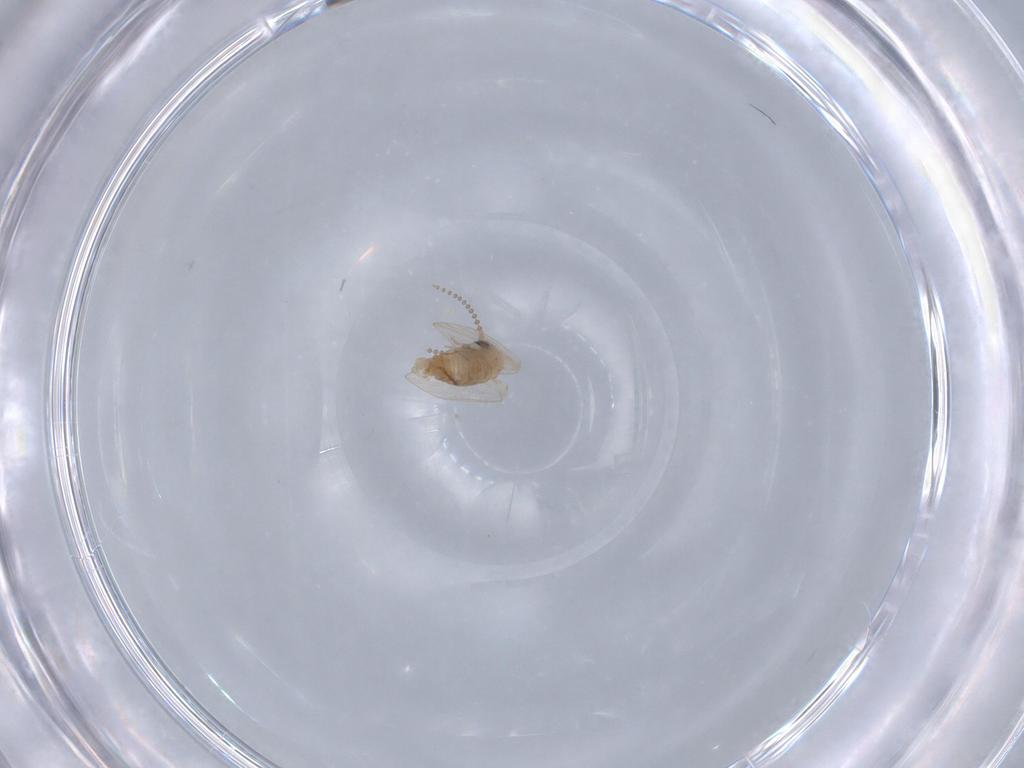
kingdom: Animalia
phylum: Arthropoda
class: Insecta
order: Diptera
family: Psychodidae
